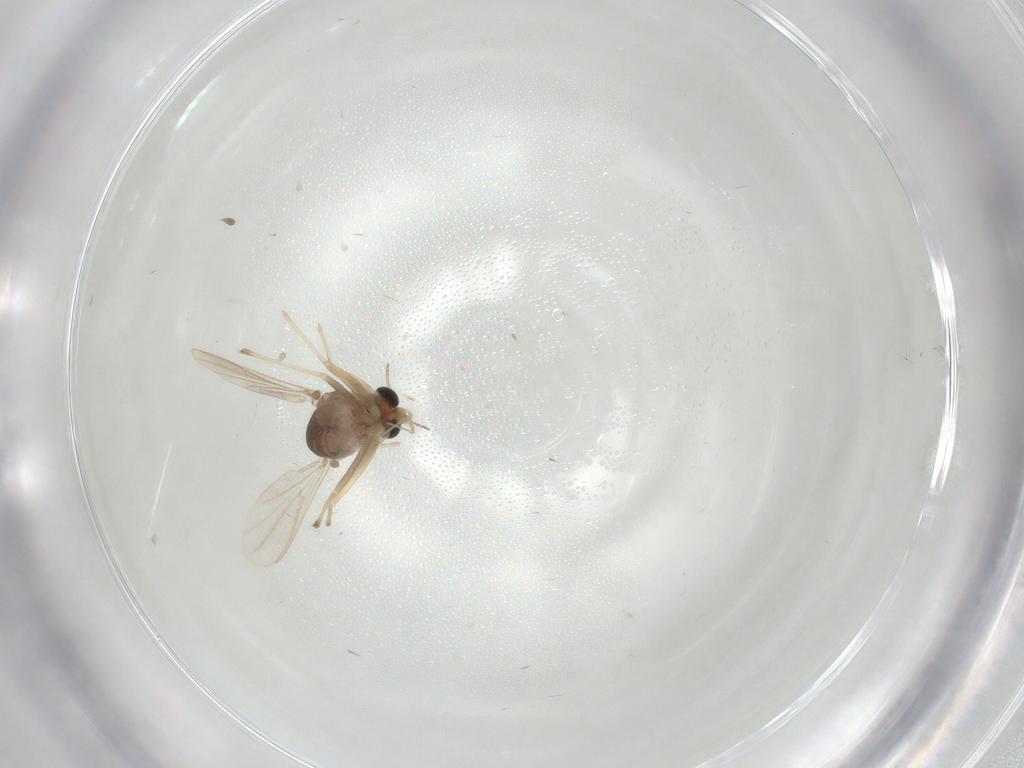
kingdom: Animalia
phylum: Arthropoda
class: Insecta
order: Diptera
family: Chironomidae
